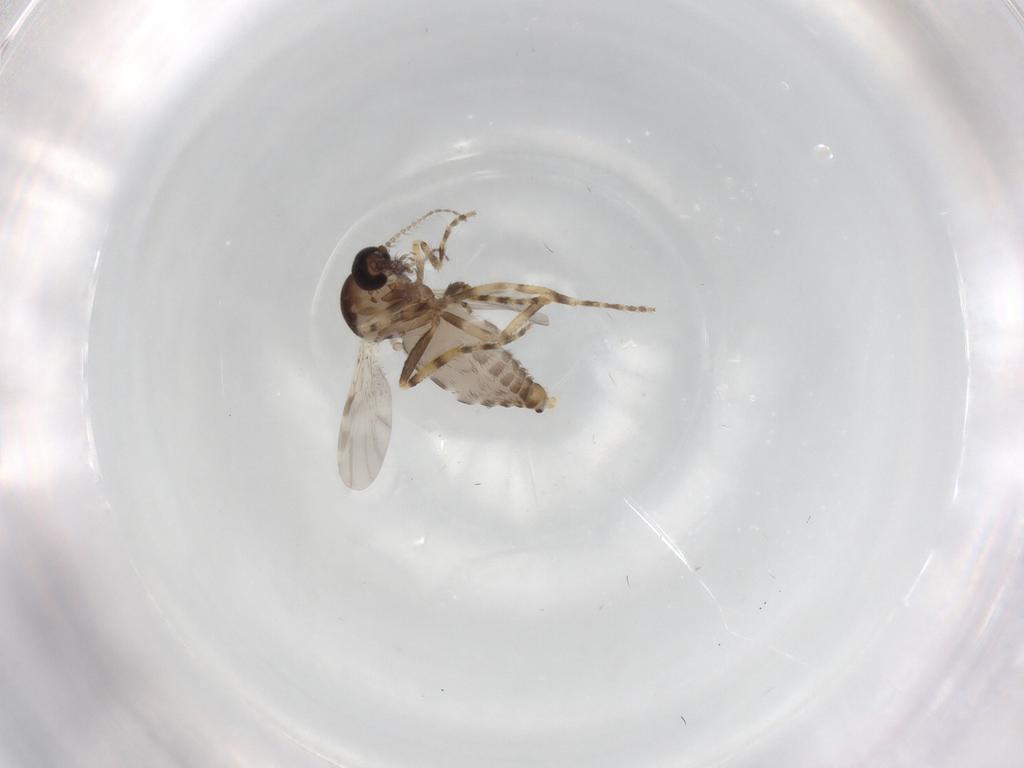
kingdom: Animalia
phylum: Arthropoda
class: Insecta
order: Diptera
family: Ceratopogonidae
